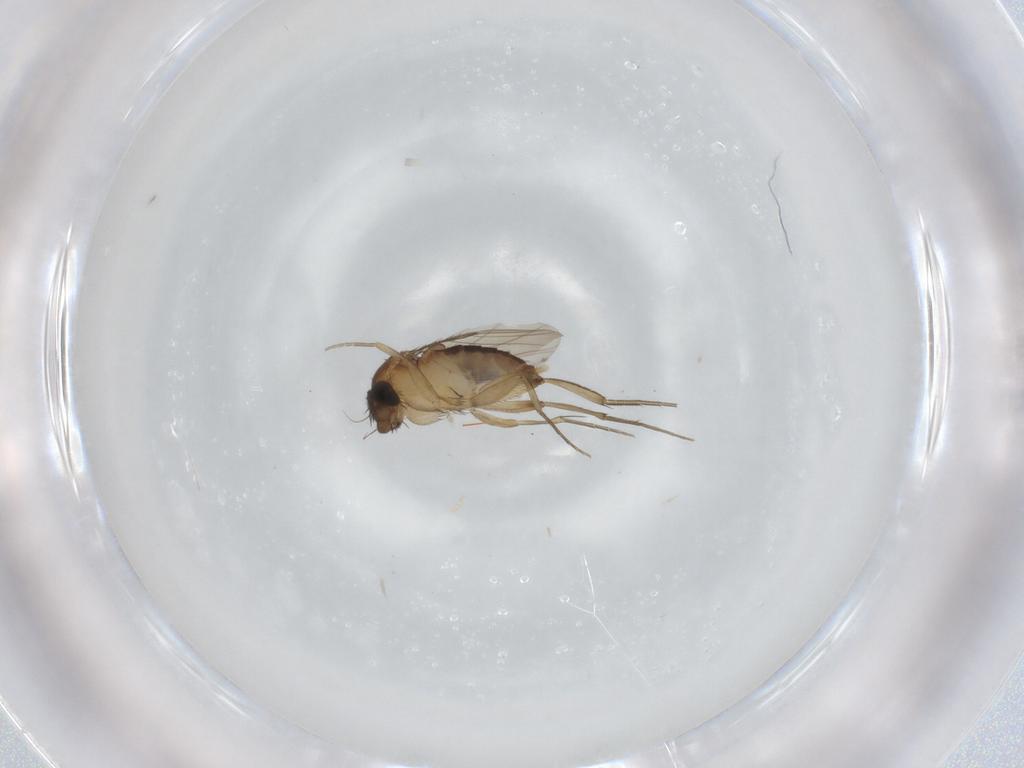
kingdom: Animalia
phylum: Arthropoda
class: Insecta
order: Diptera
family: Phoridae
